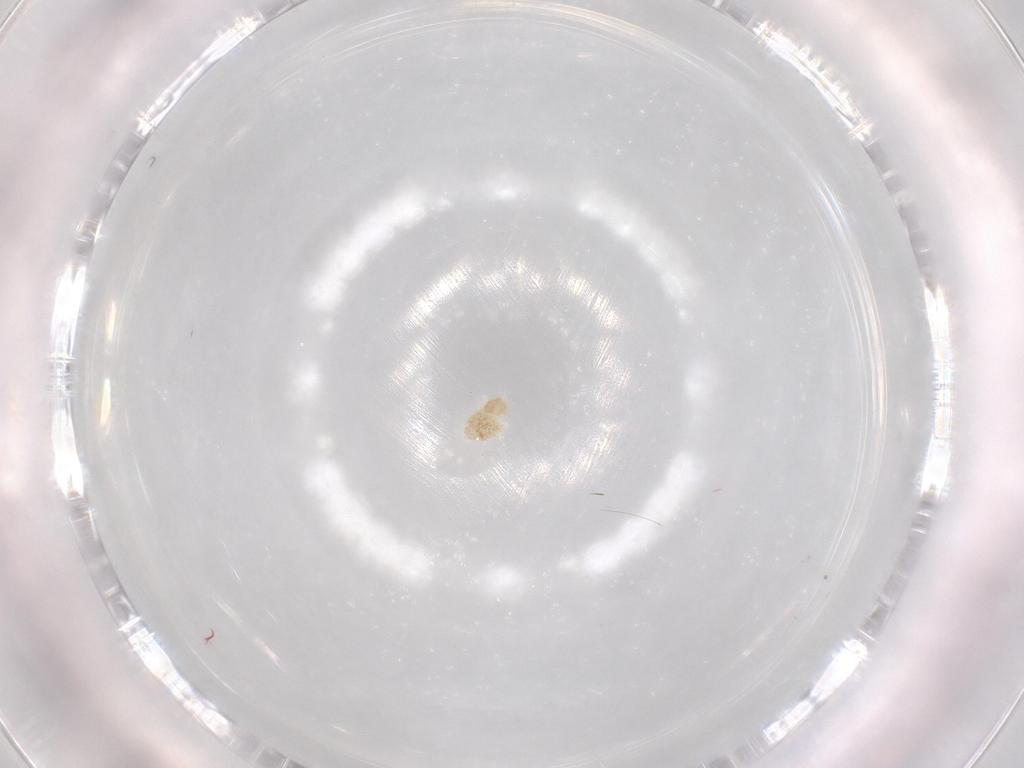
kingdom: Animalia
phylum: Arthropoda
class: Arachnida
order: Trombidiformes
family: Eupodidae
